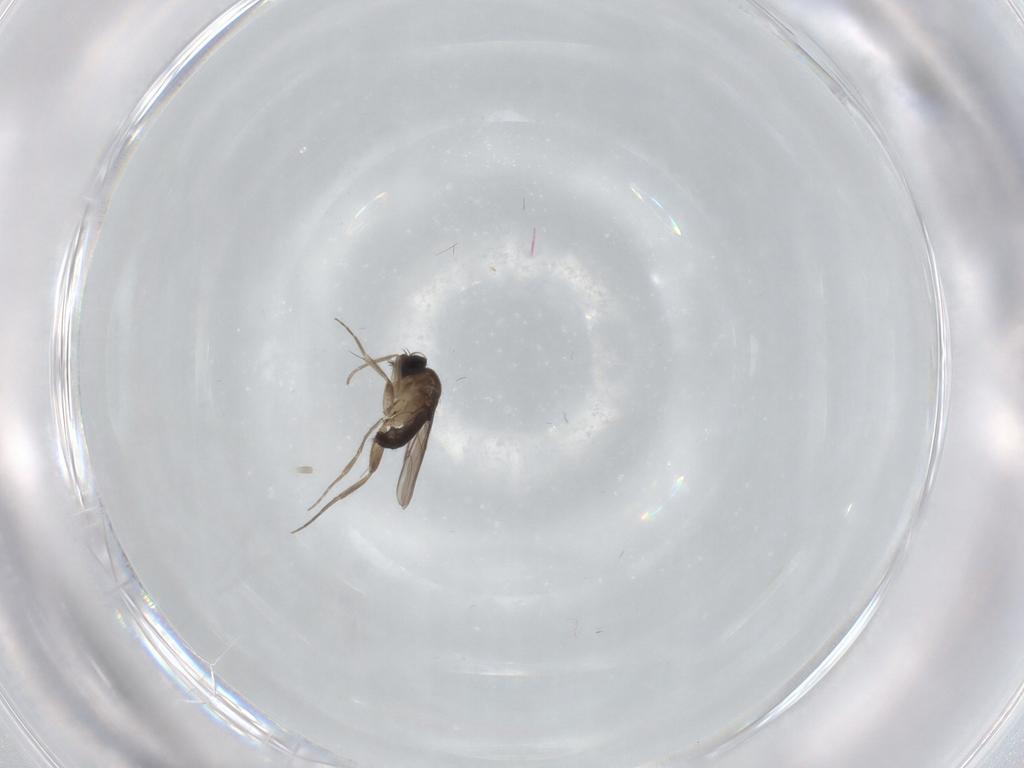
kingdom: Animalia
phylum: Arthropoda
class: Insecta
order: Diptera
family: Phoridae
